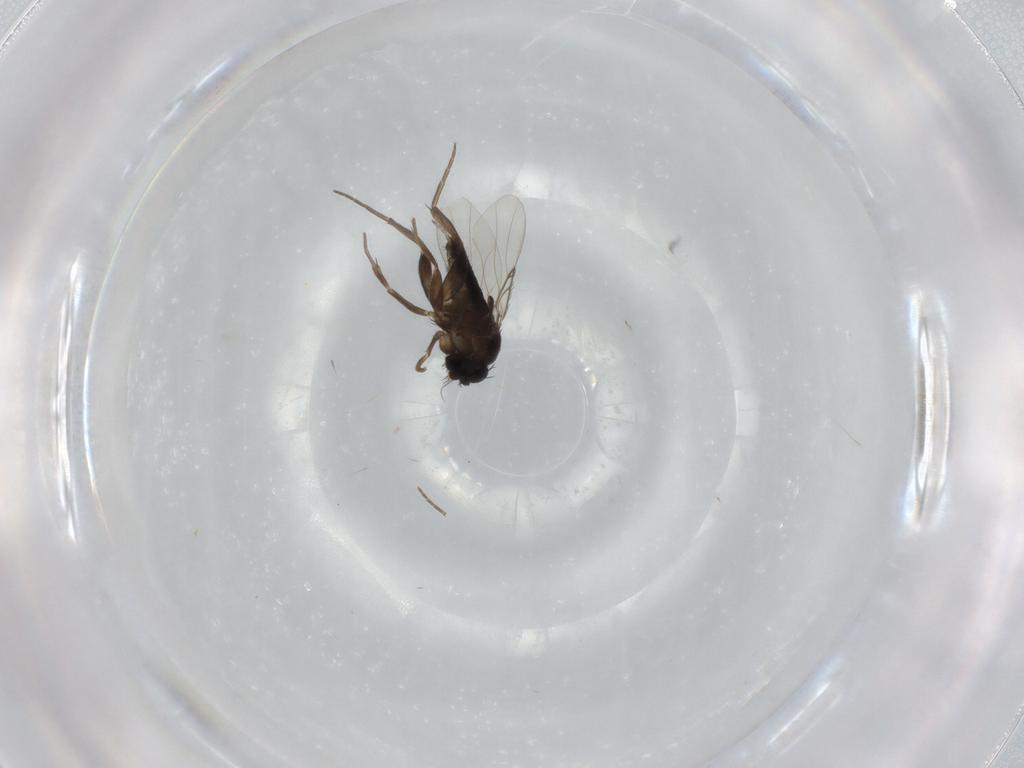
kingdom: Animalia
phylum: Arthropoda
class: Insecta
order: Diptera
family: Phoridae
